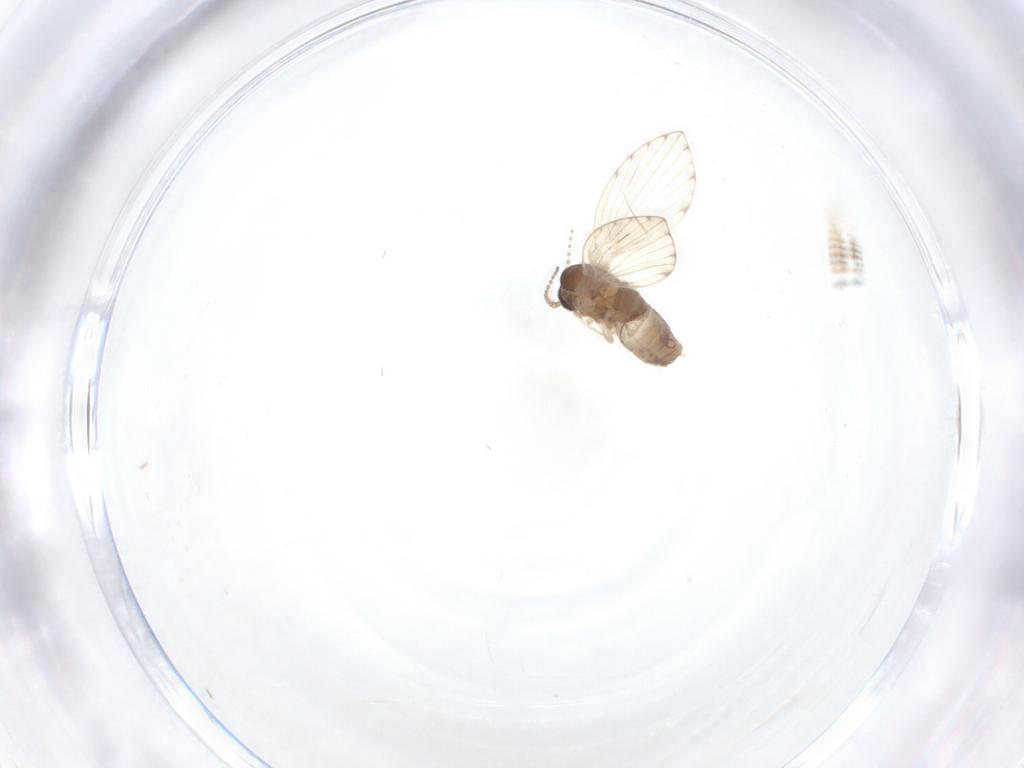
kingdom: Animalia
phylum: Arthropoda
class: Insecta
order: Diptera
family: Psychodidae
